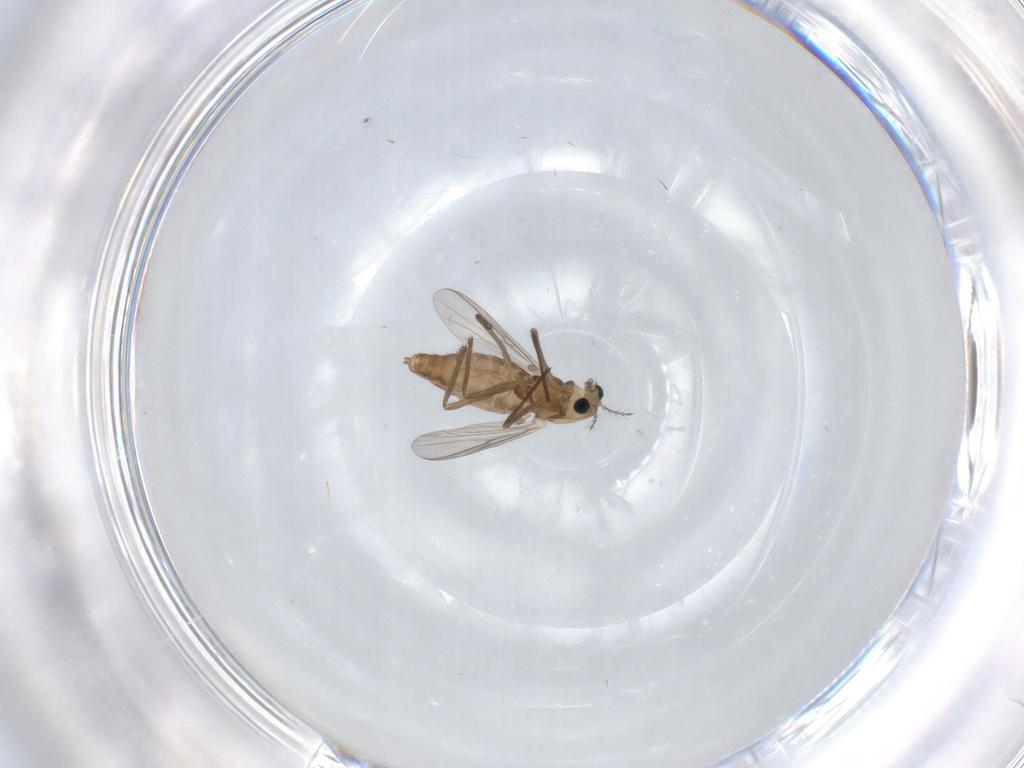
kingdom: Animalia
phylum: Arthropoda
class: Insecta
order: Diptera
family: Chironomidae
